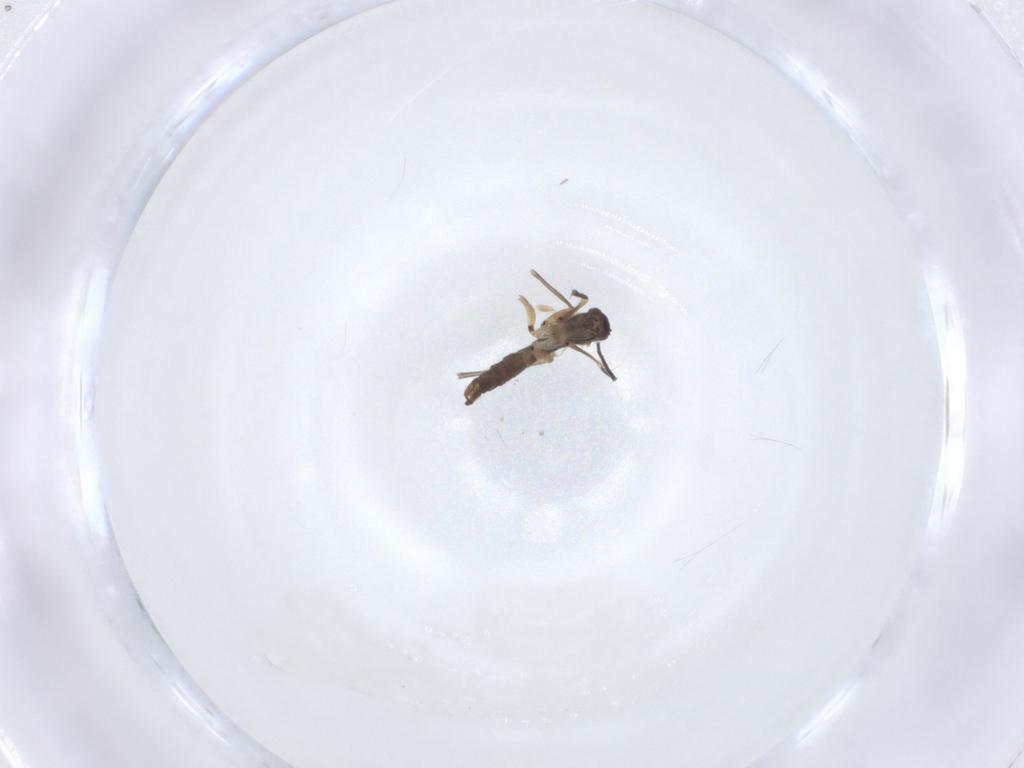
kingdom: Animalia
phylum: Arthropoda
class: Insecta
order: Diptera
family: Sciaridae
